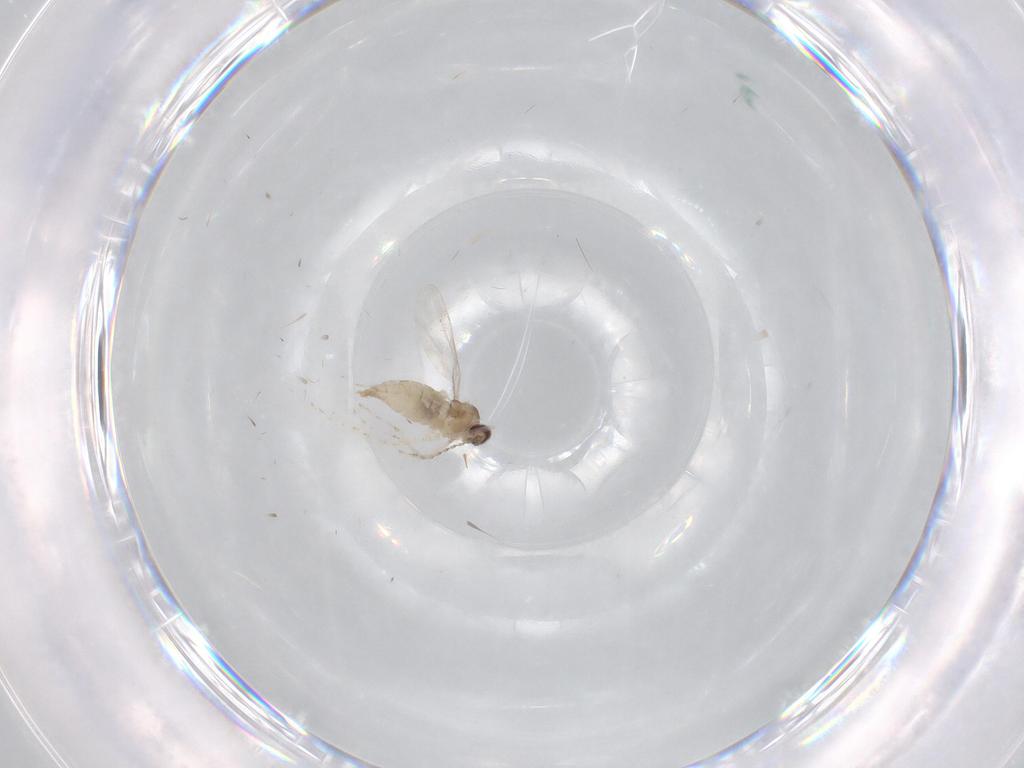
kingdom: Animalia
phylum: Arthropoda
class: Insecta
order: Diptera
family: Cecidomyiidae
